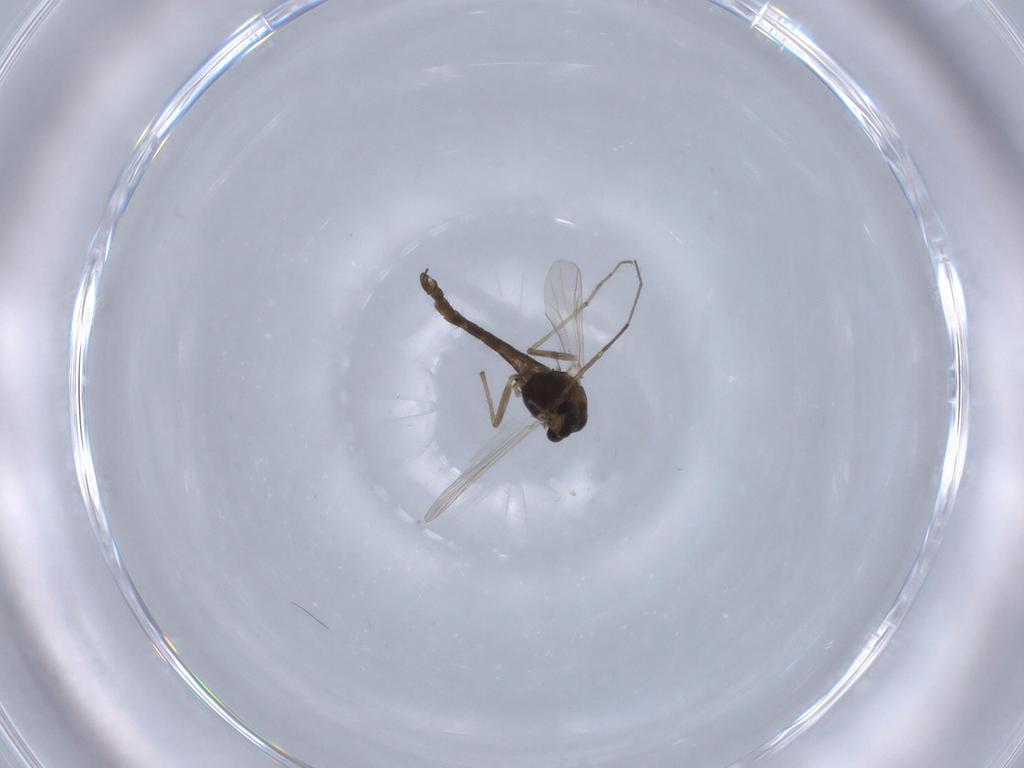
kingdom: Animalia
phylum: Arthropoda
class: Insecta
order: Diptera
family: Chironomidae
